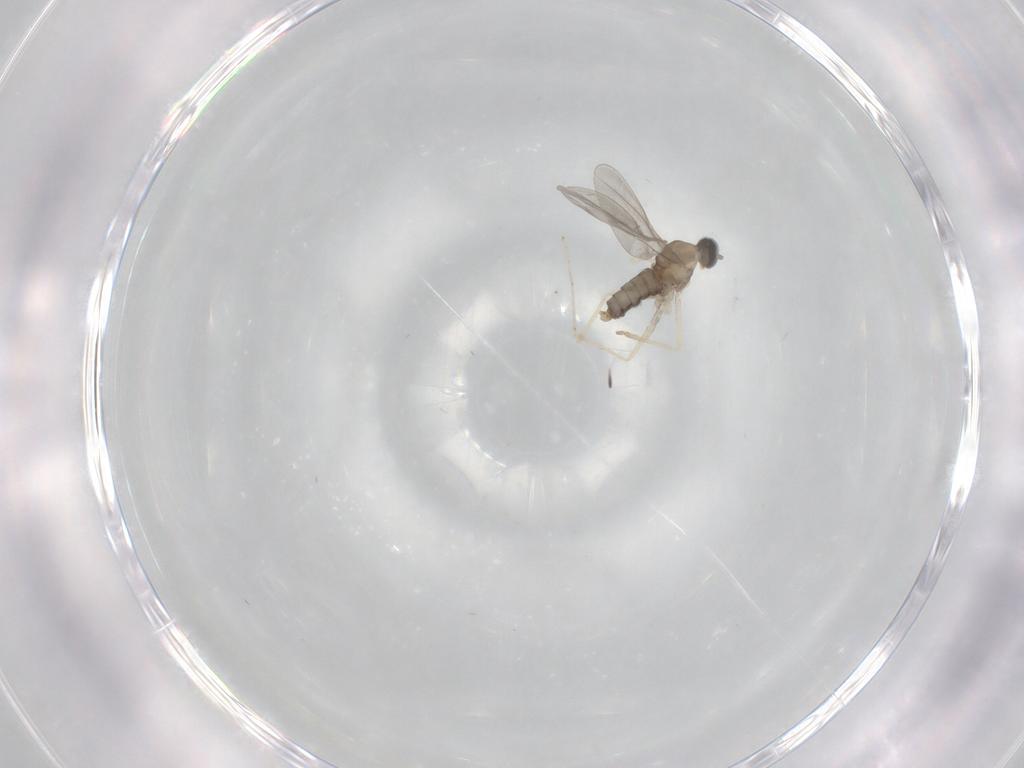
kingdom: Animalia
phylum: Arthropoda
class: Insecta
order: Diptera
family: Cecidomyiidae
